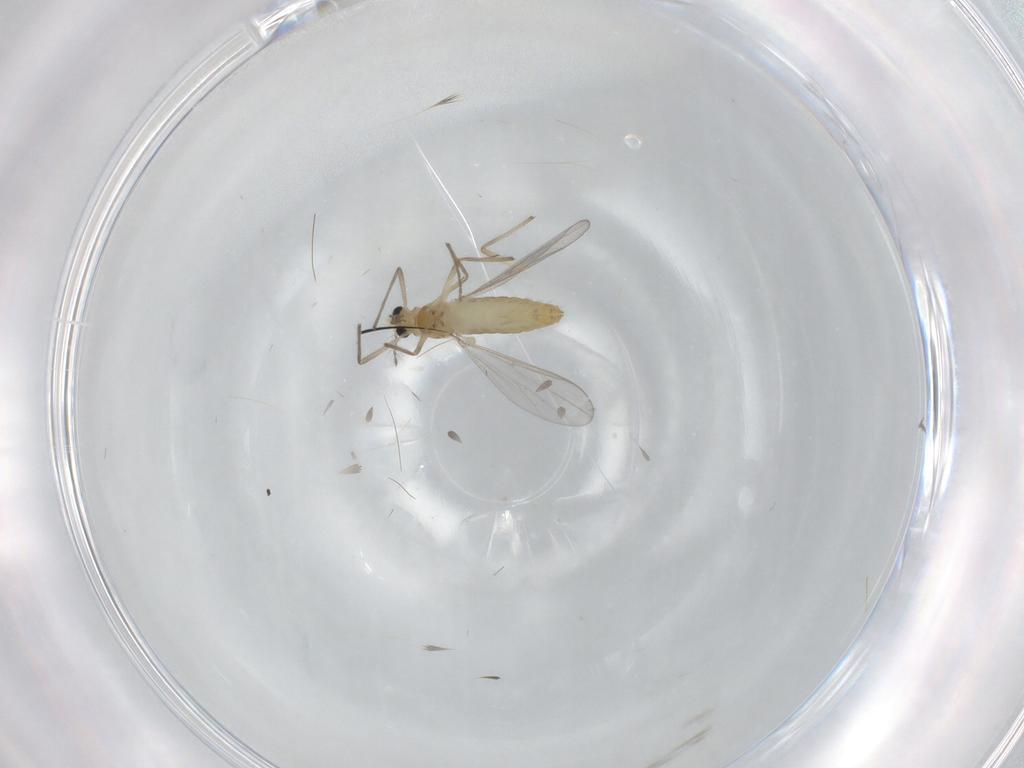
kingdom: Animalia
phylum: Arthropoda
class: Insecta
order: Diptera
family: Chironomidae
